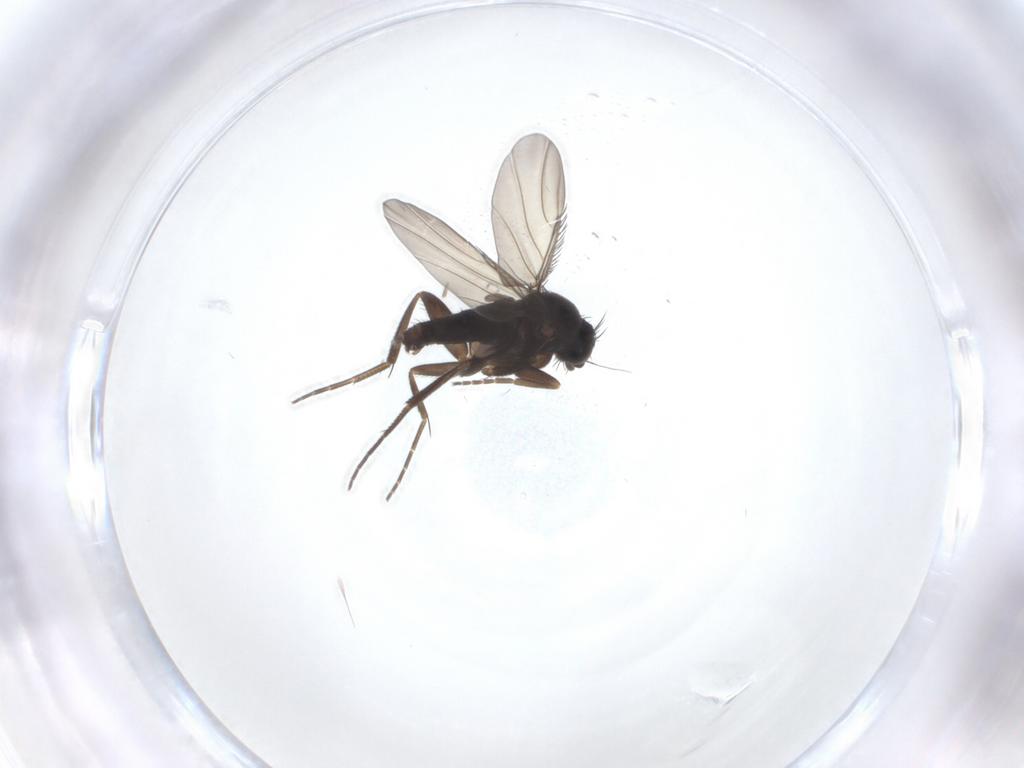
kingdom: Animalia
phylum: Arthropoda
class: Insecta
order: Diptera
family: Phoridae
